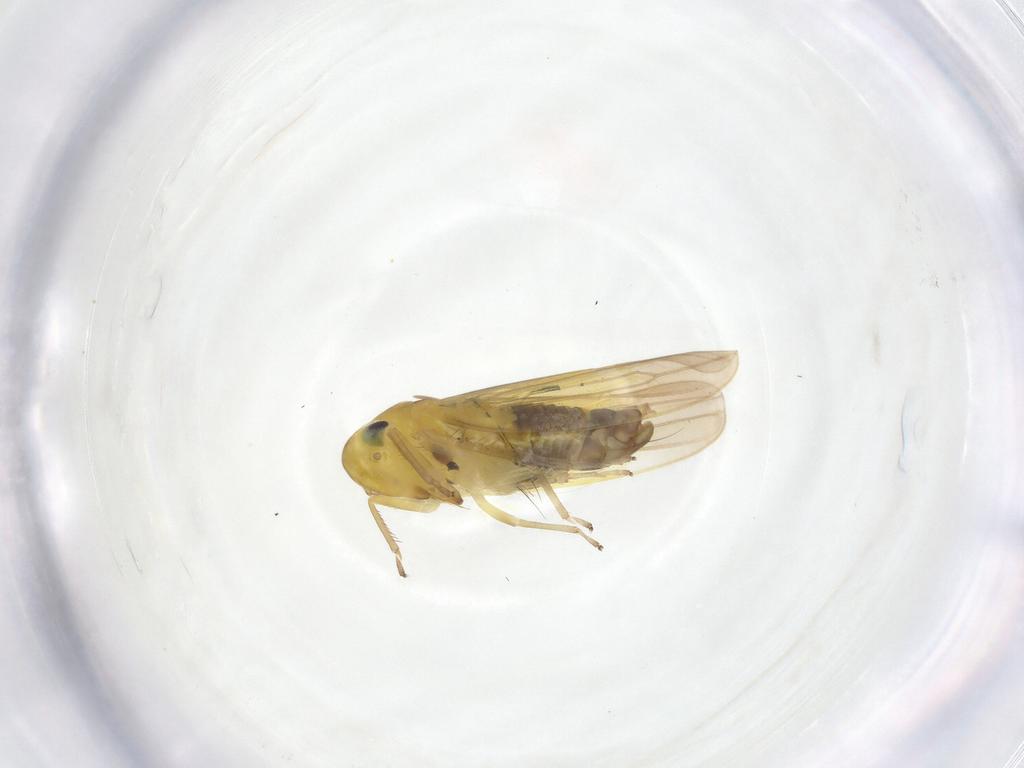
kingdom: Animalia
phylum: Arthropoda
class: Insecta
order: Hemiptera
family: Cicadellidae
